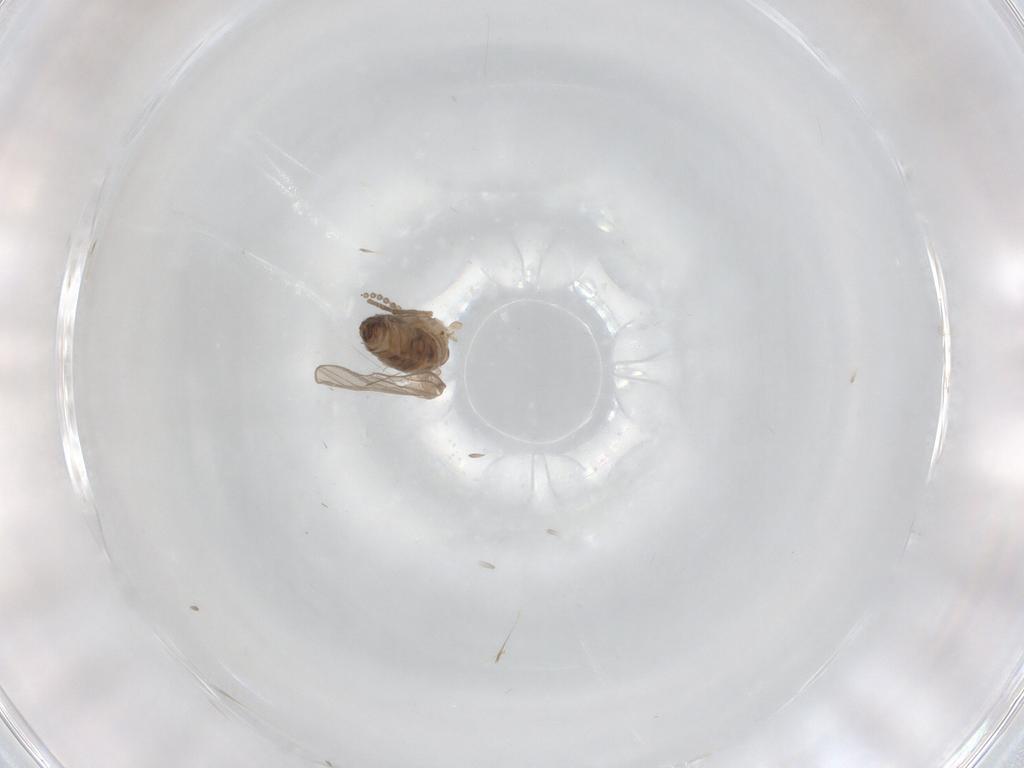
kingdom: Animalia
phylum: Arthropoda
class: Insecta
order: Diptera
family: Psychodidae
